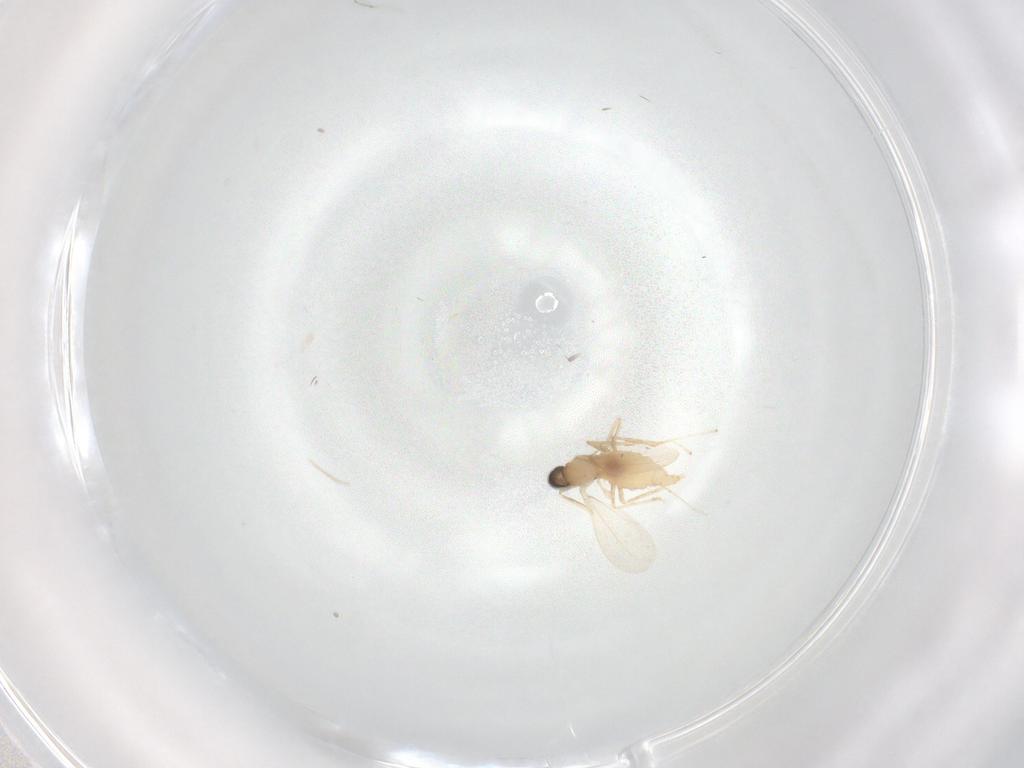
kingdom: Animalia
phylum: Arthropoda
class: Insecta
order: Diptera
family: Cecidomyiidae
